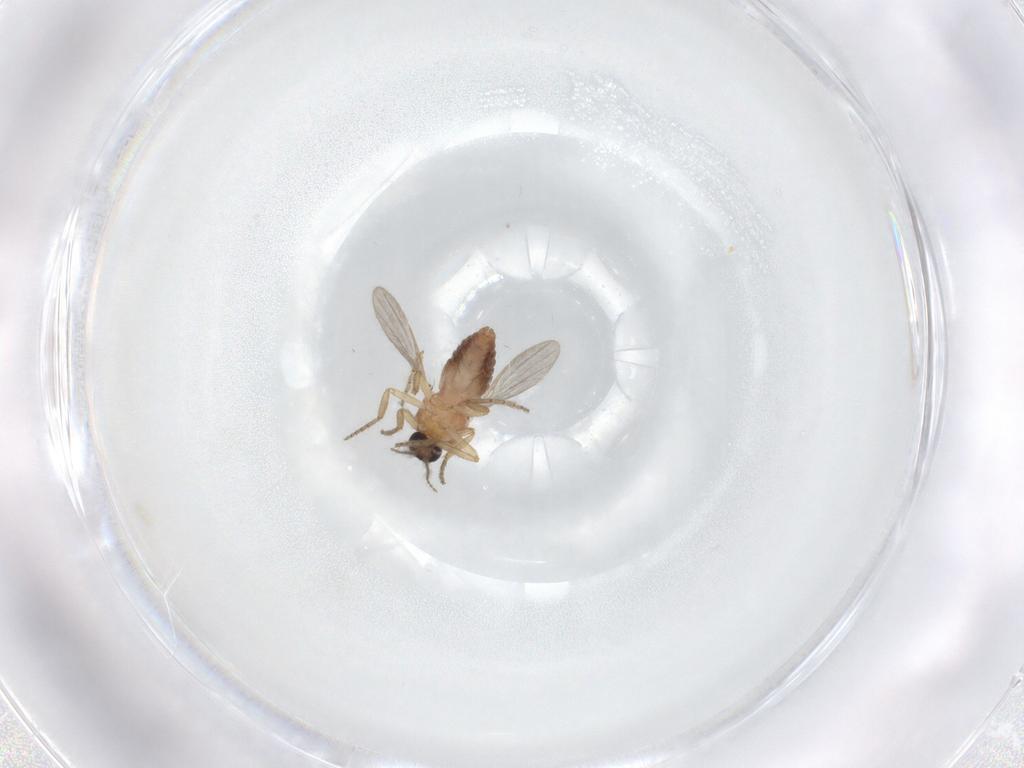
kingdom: Animalia
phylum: Arthropoda
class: Insecta
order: Diptera
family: Ceratopogonidae
